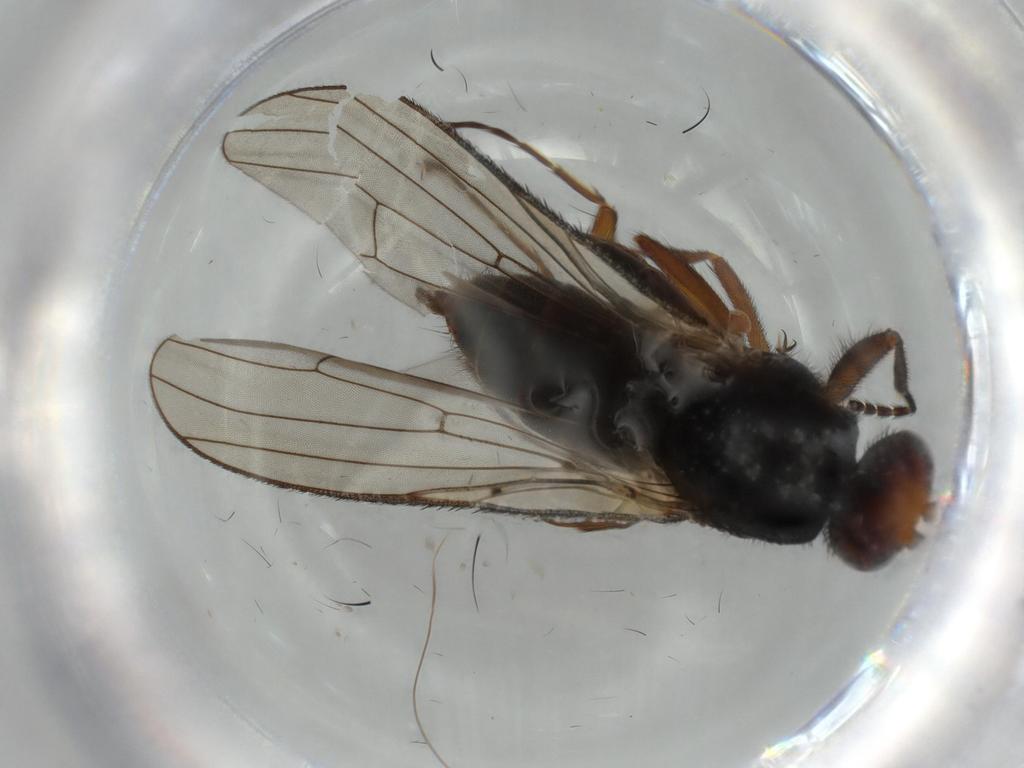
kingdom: Animalia
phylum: Arthropoda
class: Insecta
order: Diptera
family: Heleomyzidae
